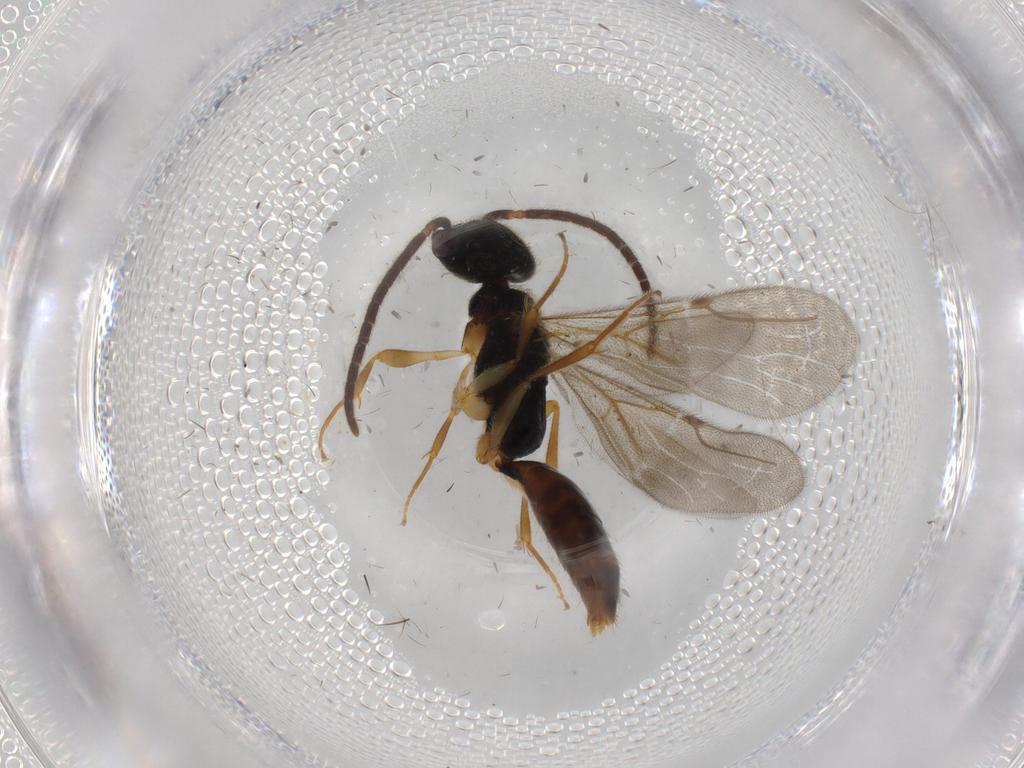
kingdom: Animalia
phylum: Arthropoda
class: Insecta
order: Hymenoptera
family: Bethylidae
